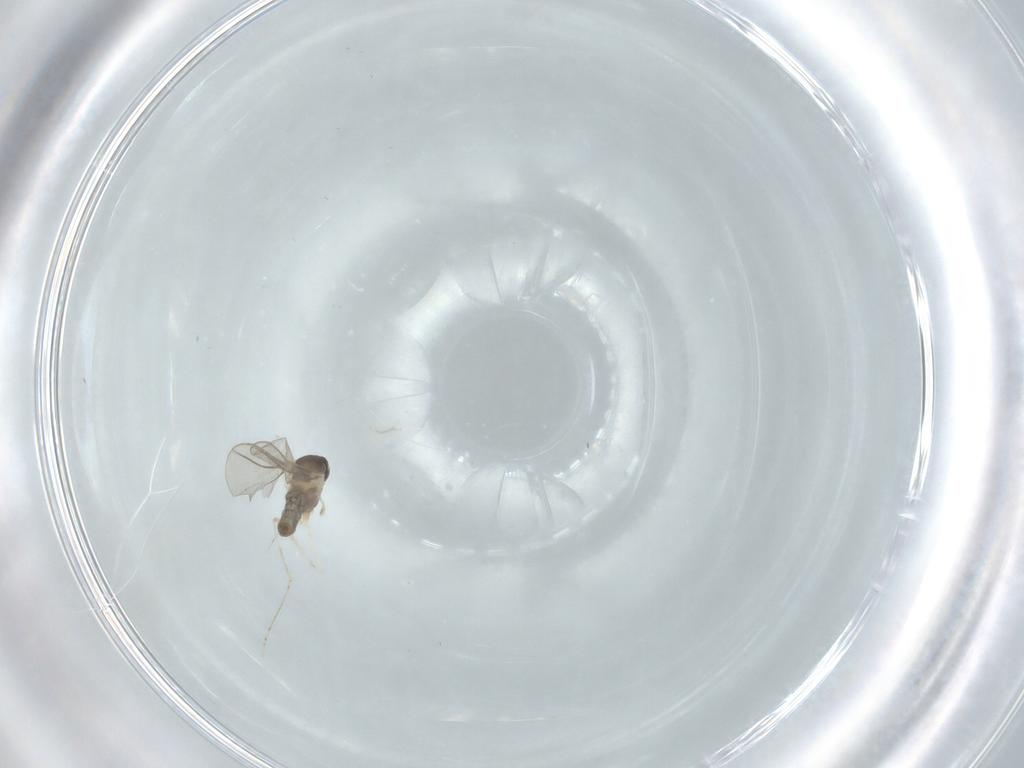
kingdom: Animalia
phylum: Arthropoda
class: Insecta
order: Diptera
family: Cecidomyiidae
